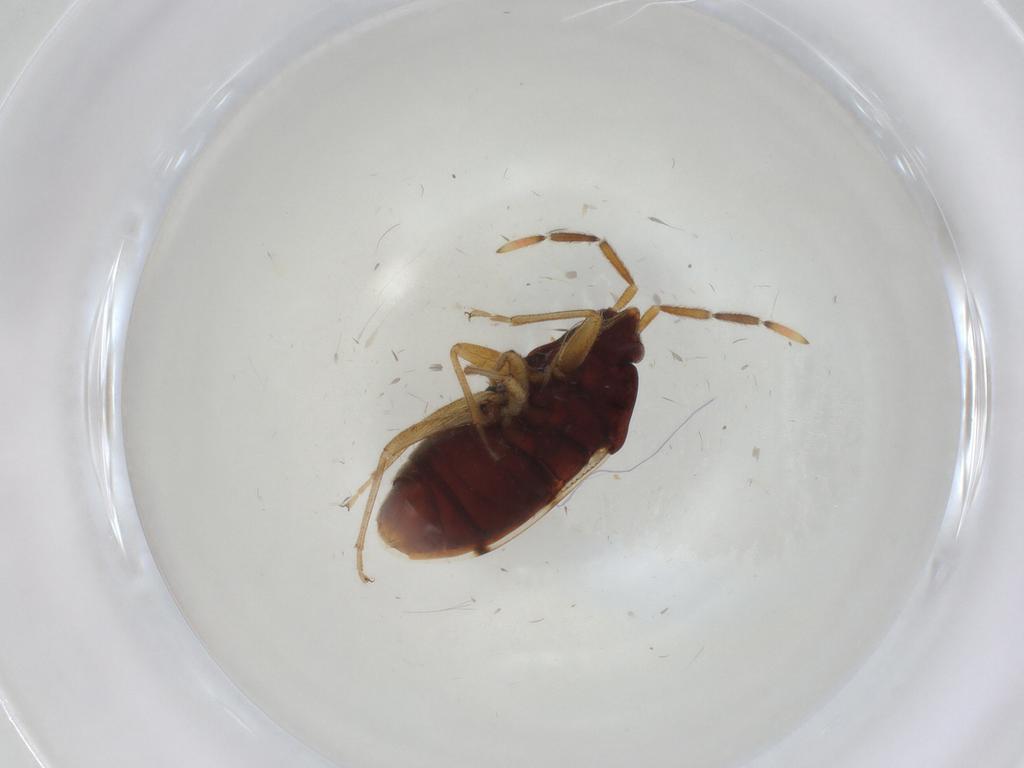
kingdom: Animalia
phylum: Arthropoda
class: Insecta
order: Hemiptera
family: Rhyparochromidae
